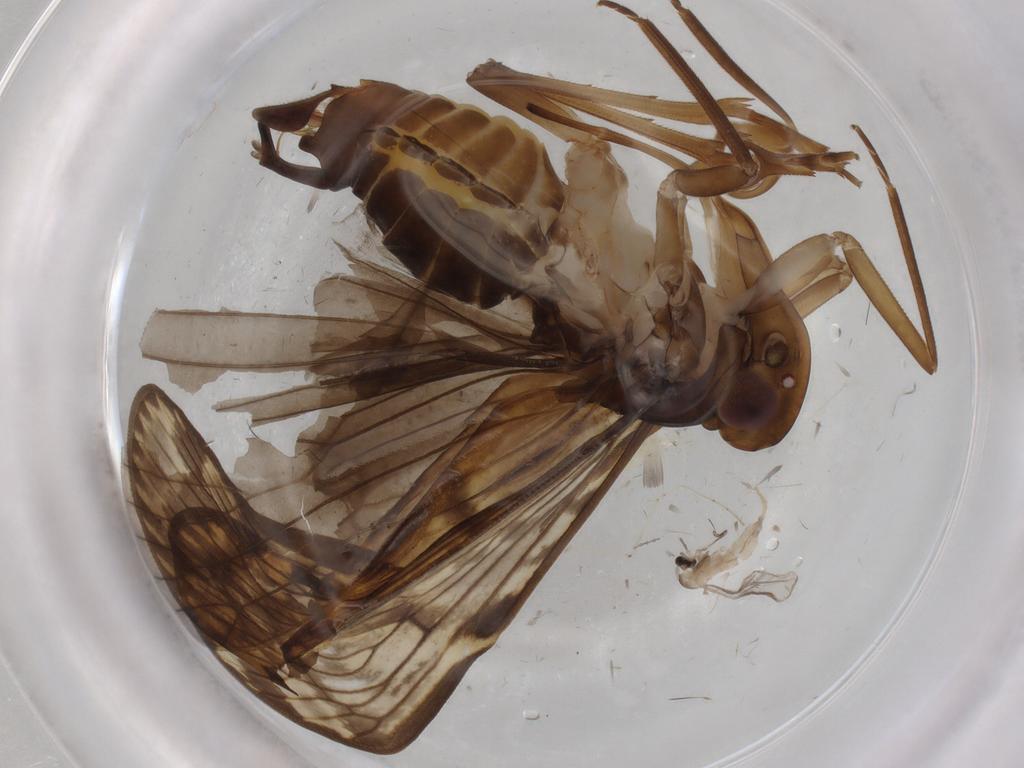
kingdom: Animalia
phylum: Arthropoda
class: Insecta
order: Diptera
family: Cecidomyiidae
